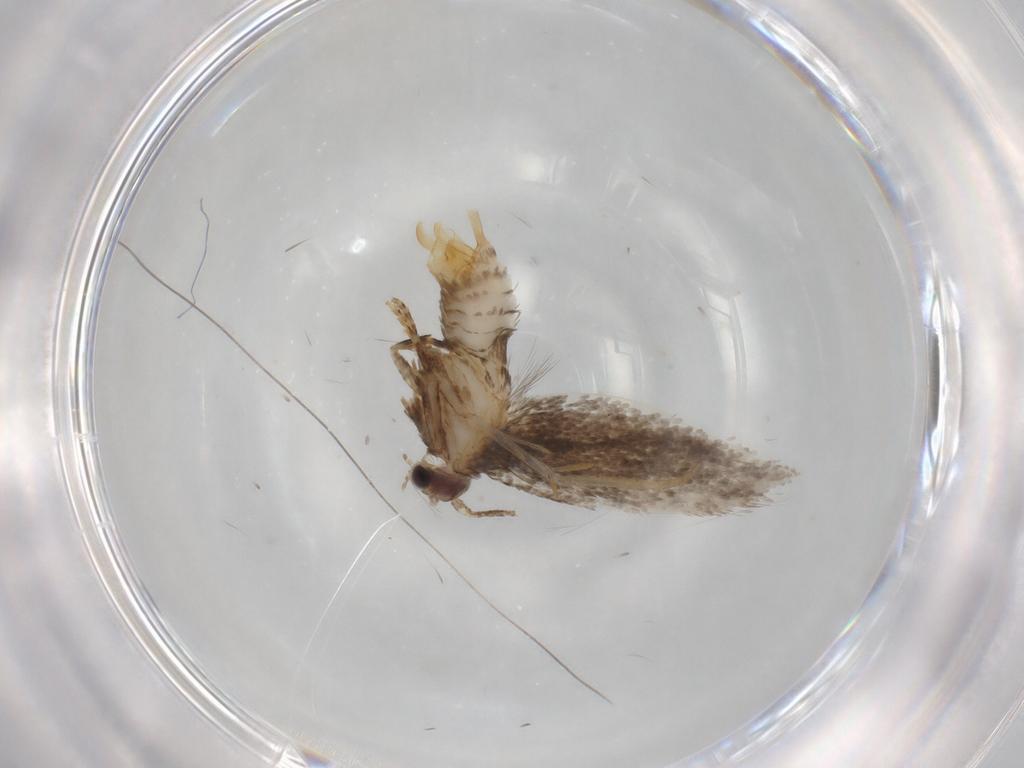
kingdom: Animalia
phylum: Arthropoda
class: Insecta
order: Lepidoptera
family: Tineidae
